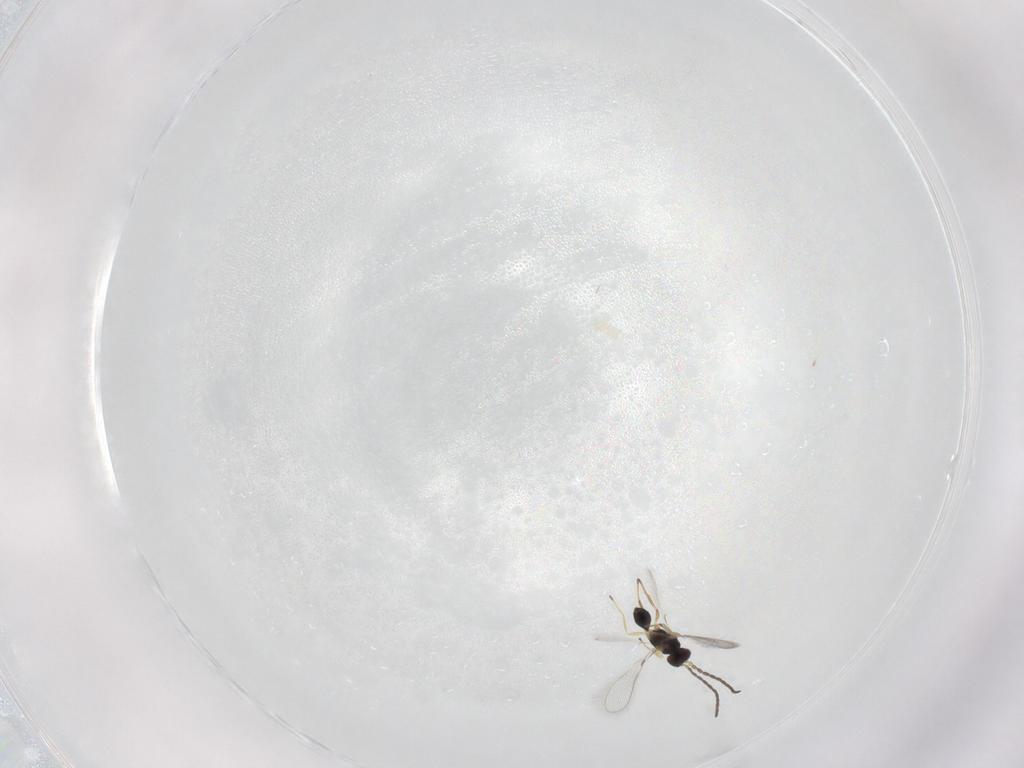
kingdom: Animalia
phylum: Arthropoda
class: Insecta
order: Hymenoptera
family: Mymaridae
